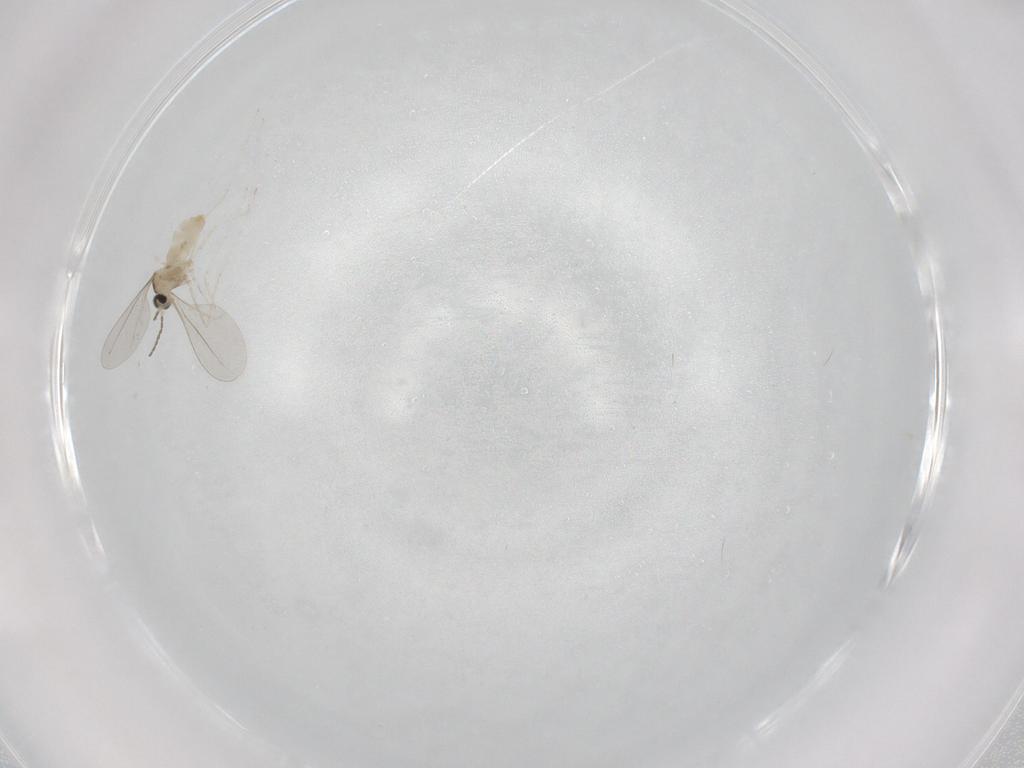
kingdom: Animalia
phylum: Arthropoda
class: Insecta
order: Diptera
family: Cecidomyiidae
